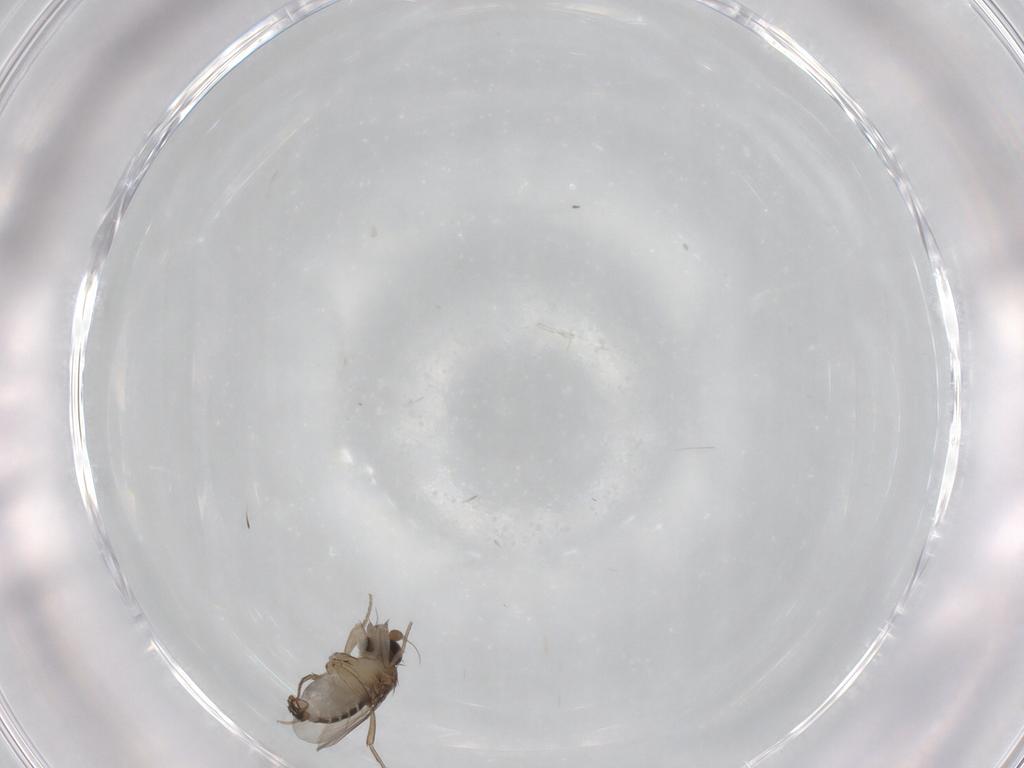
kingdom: Animalia
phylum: Arthropoda
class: Insecta
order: Diptera
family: Phoridae
